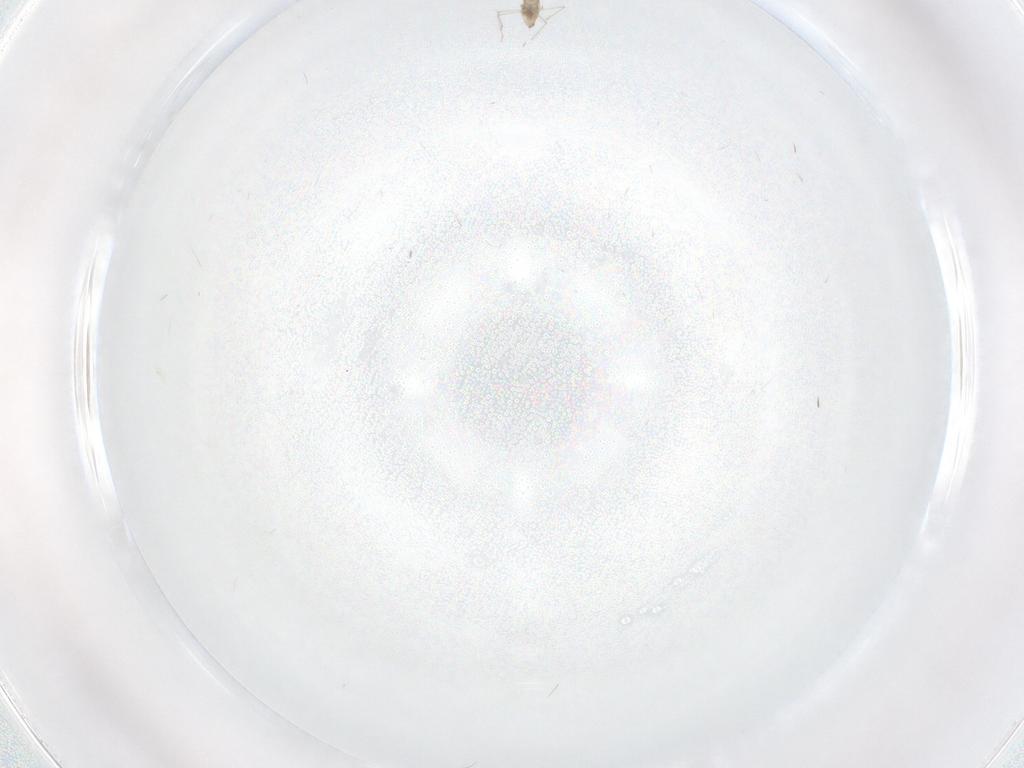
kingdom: Animalia
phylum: Arthropoda
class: Insecta
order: Diptera
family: Cecidomyiidae
